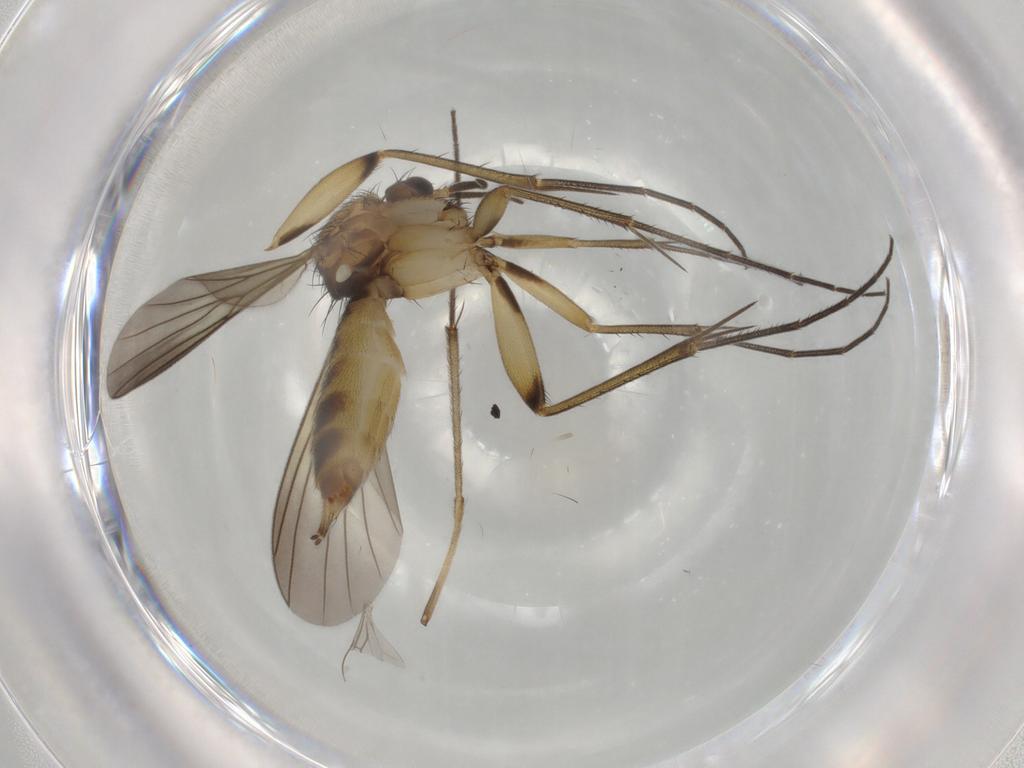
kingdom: Animalia
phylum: Arthropoda
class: Insecta
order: Diptera
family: Mycetophilidae
